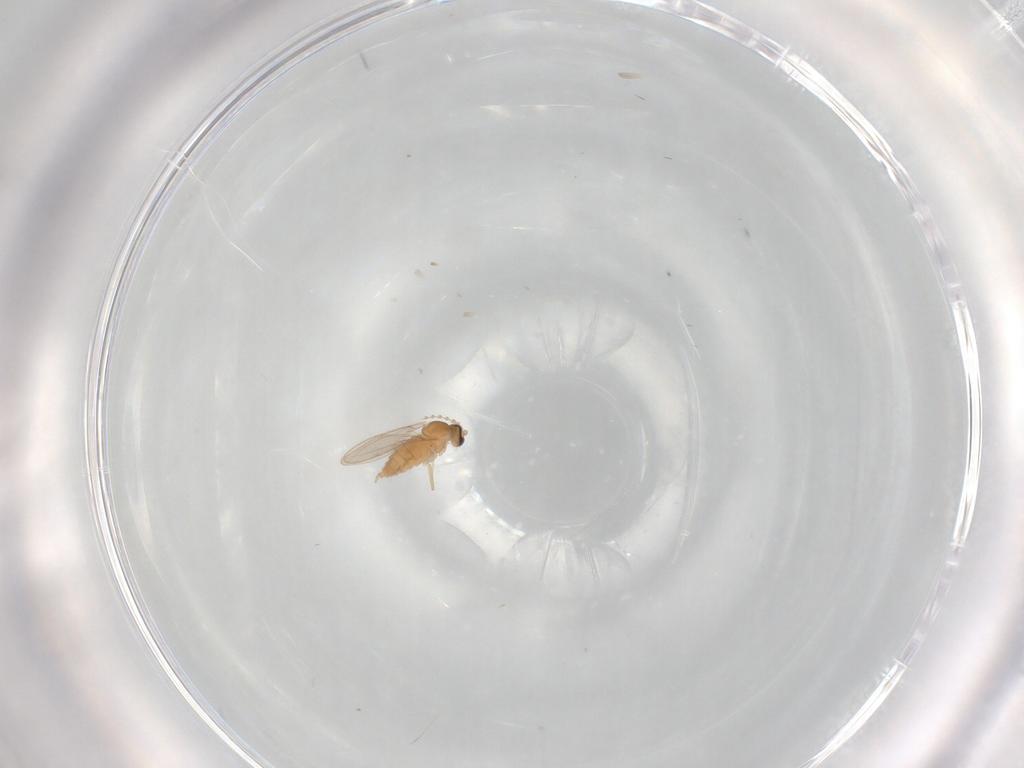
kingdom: Animalia
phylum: Arthropoda
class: Insecta
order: Diptera
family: Cecidomyiidae
